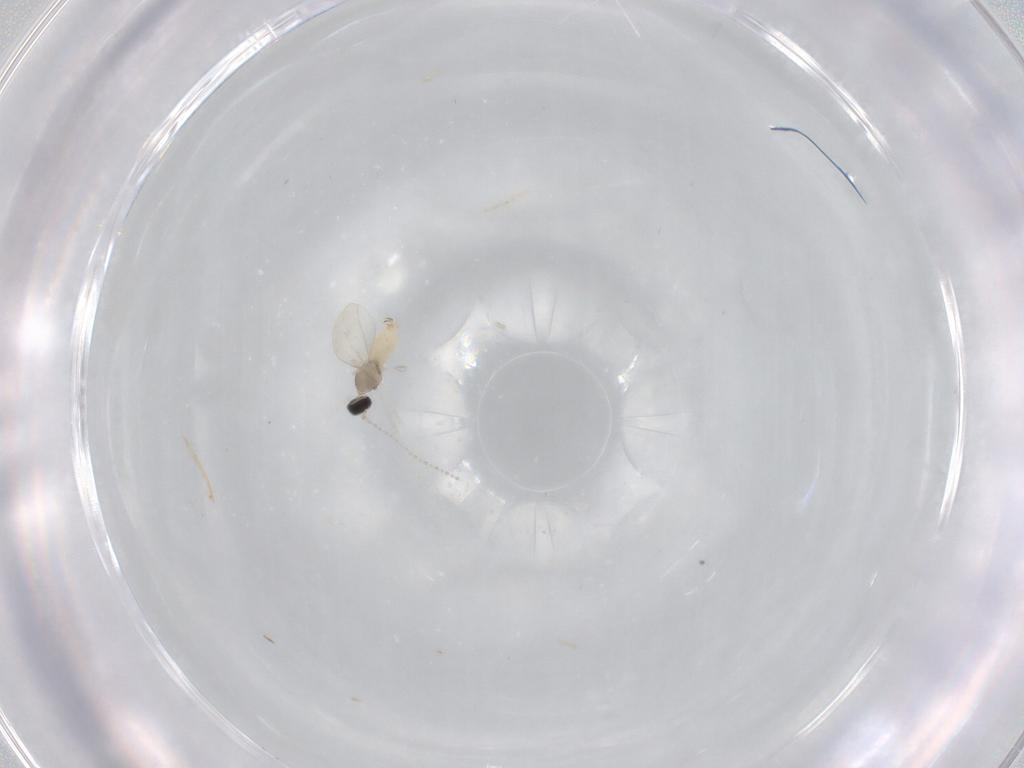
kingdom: Animalia
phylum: Arthropoda
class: Insecta
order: Diptera
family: Cecidomyiidae
